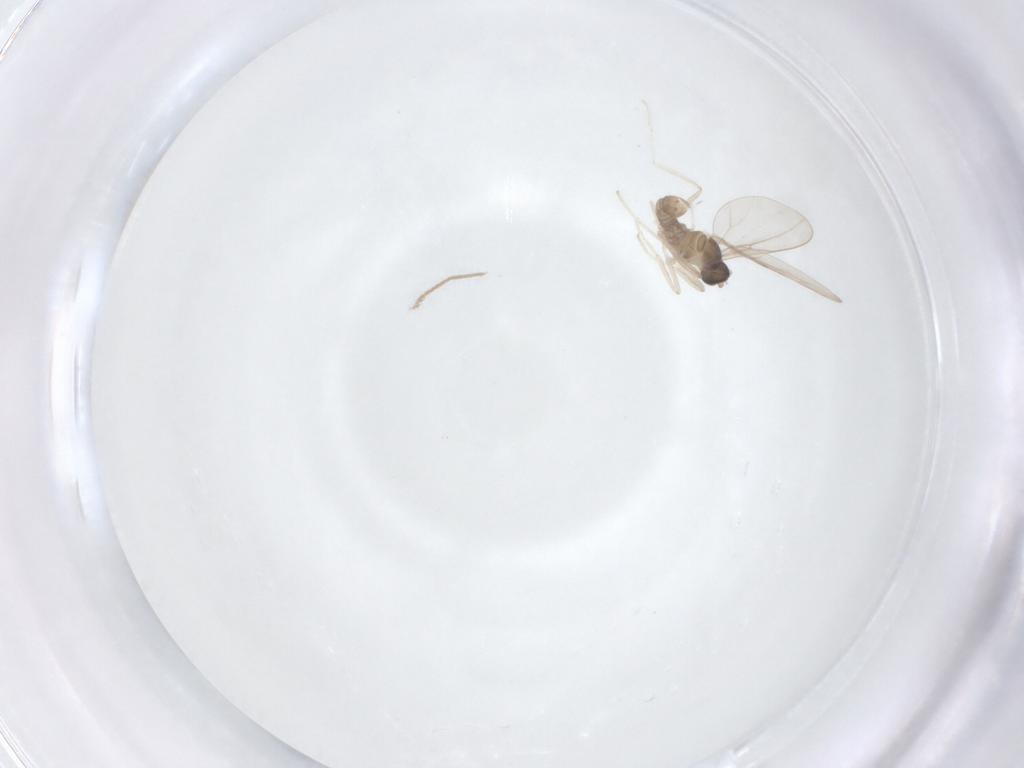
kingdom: Animalia
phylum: Arthropoda
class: Insecta
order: Diptera
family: Cecidomyiidae
